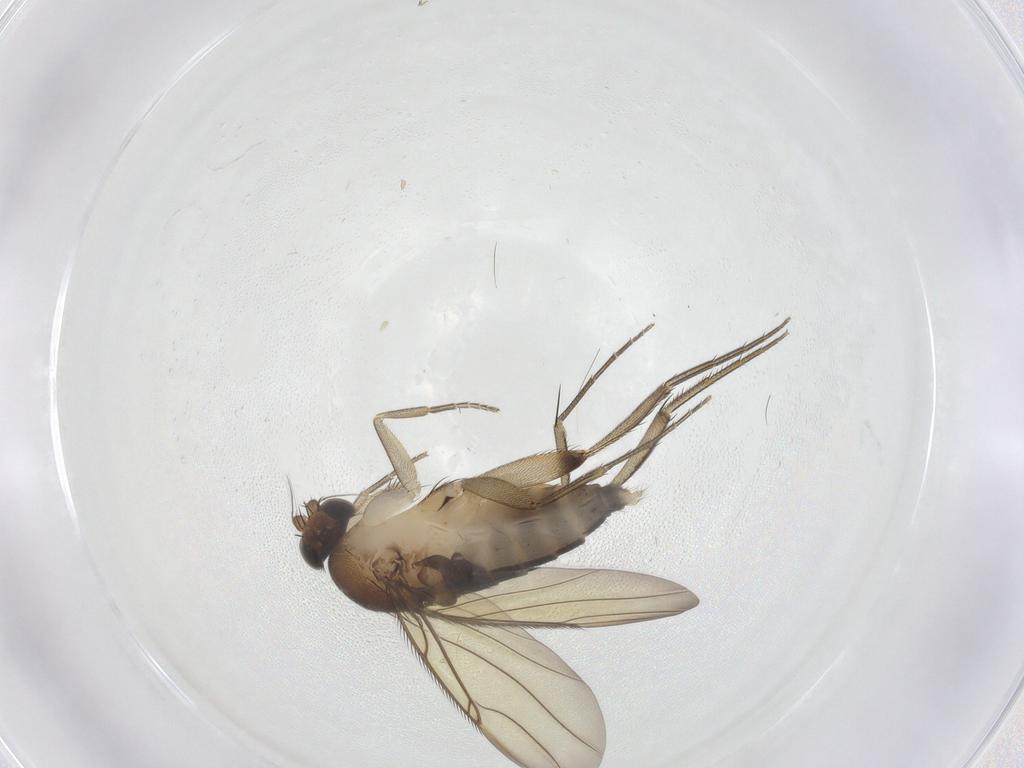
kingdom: Animalia
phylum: Arthropoda
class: Insecta
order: Diptera
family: Phoridae
